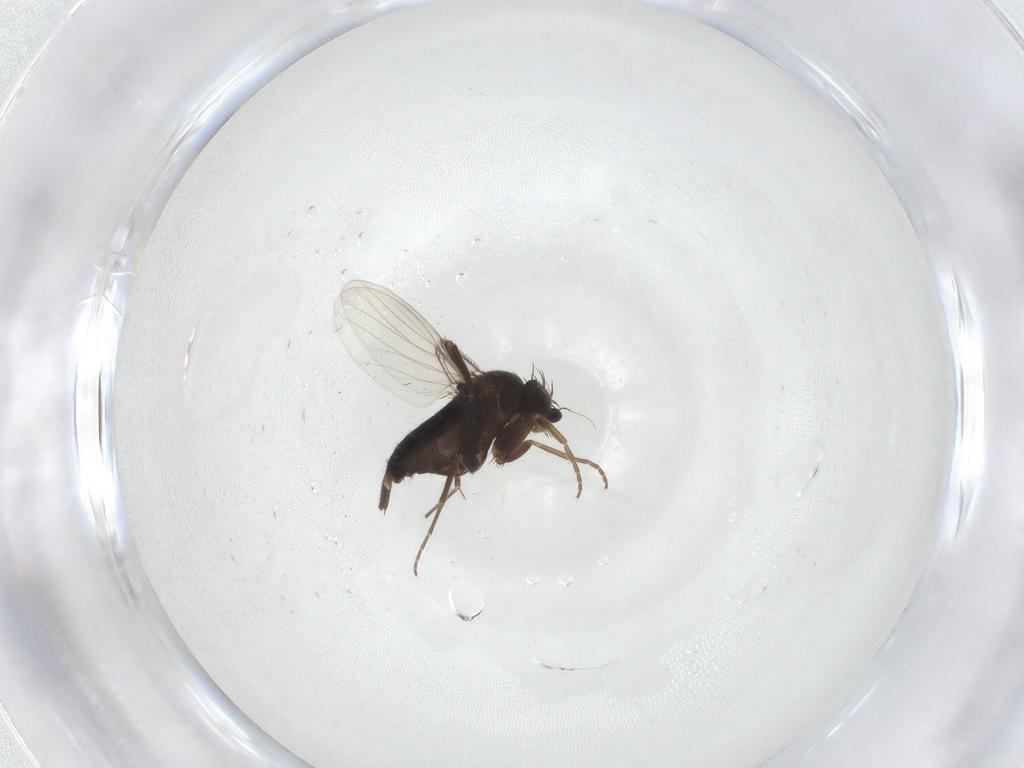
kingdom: Animalia
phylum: Arthropoda
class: Insecta
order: Diptera
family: Phoridae
